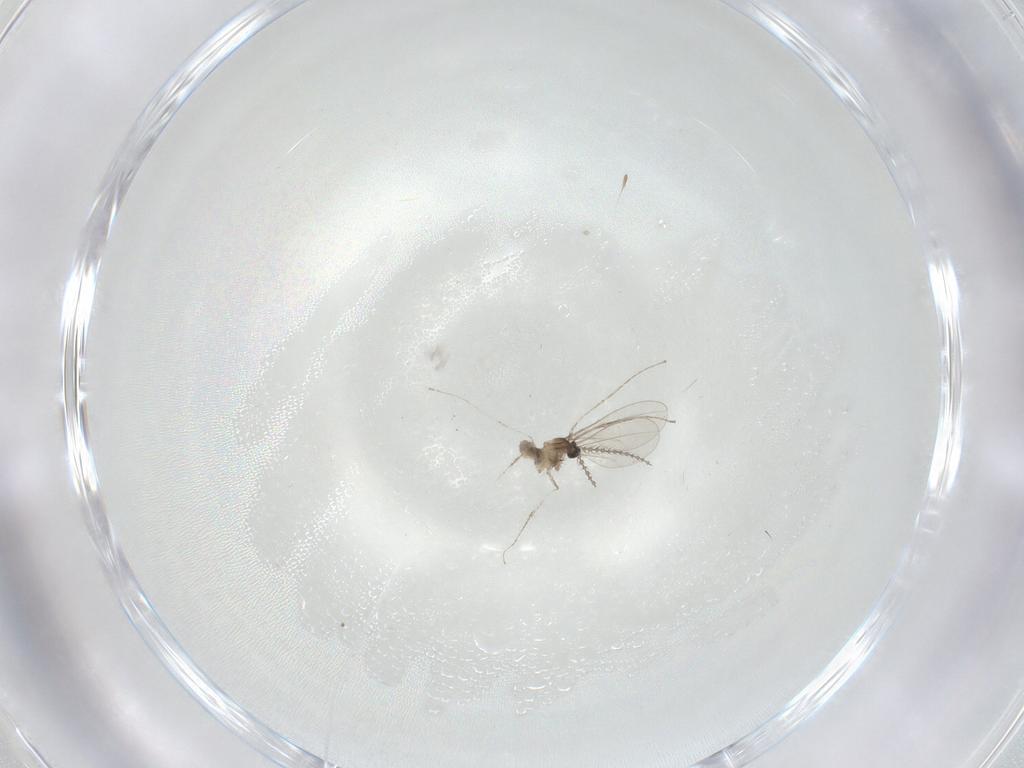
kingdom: Animalia
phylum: Arthropoda
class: Insecta
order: Diptera
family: Cecidomyiidae
